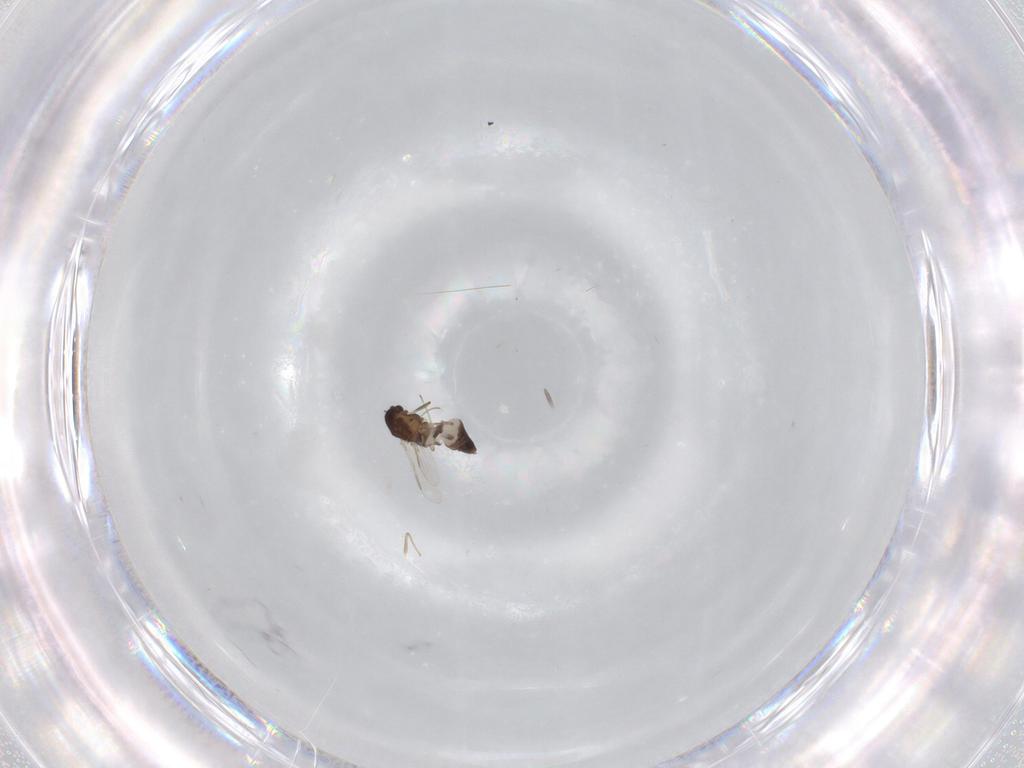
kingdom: Animalia
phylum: Arthropoda
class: Insecta
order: Diptera
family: Chironomidae
